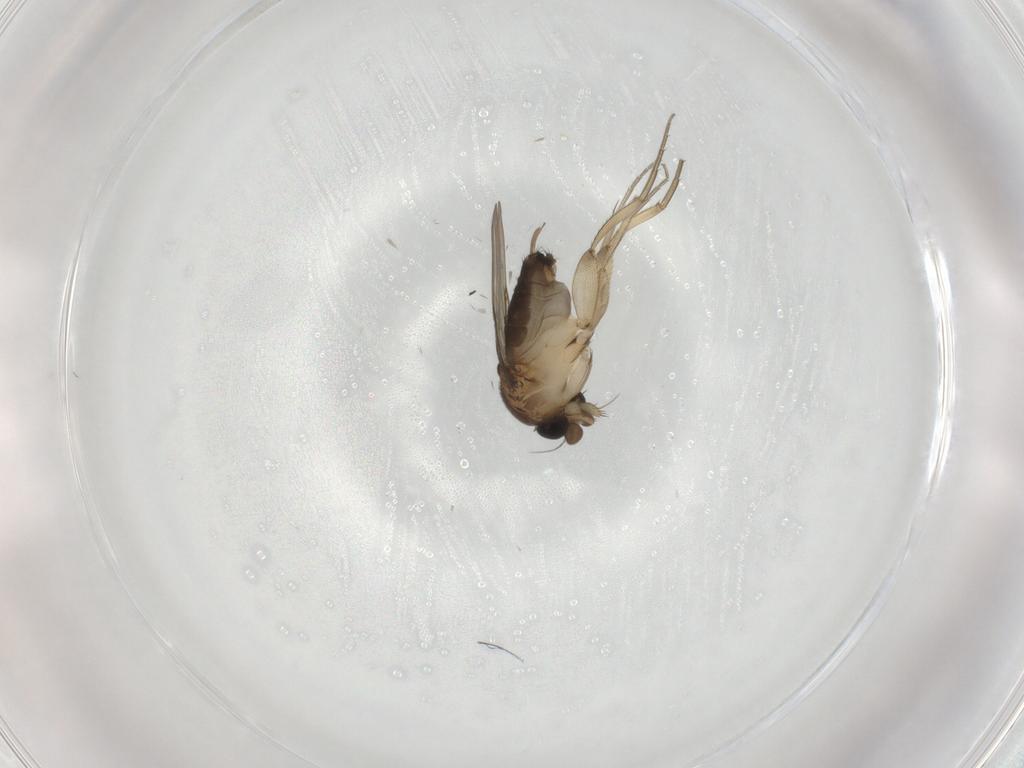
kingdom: Animalia
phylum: Arthropoda
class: Insecta
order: Diptera
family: Phoridae
